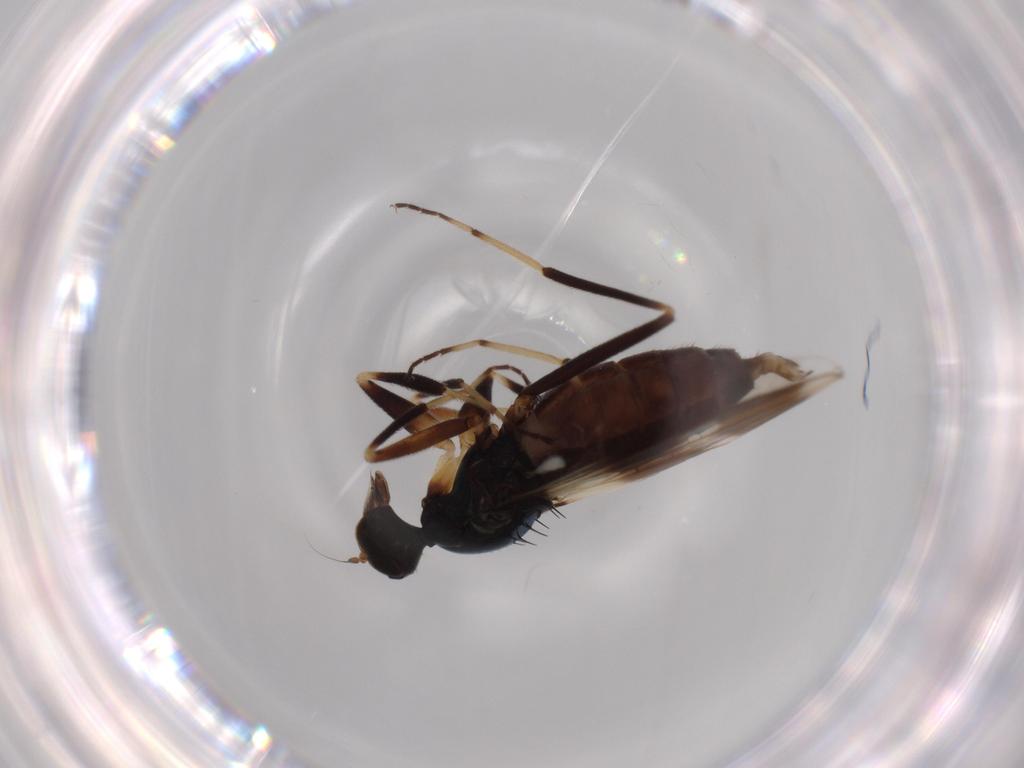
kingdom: Animalia
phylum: Arthropoda
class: Insecta
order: Diptera
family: Hybotidae
